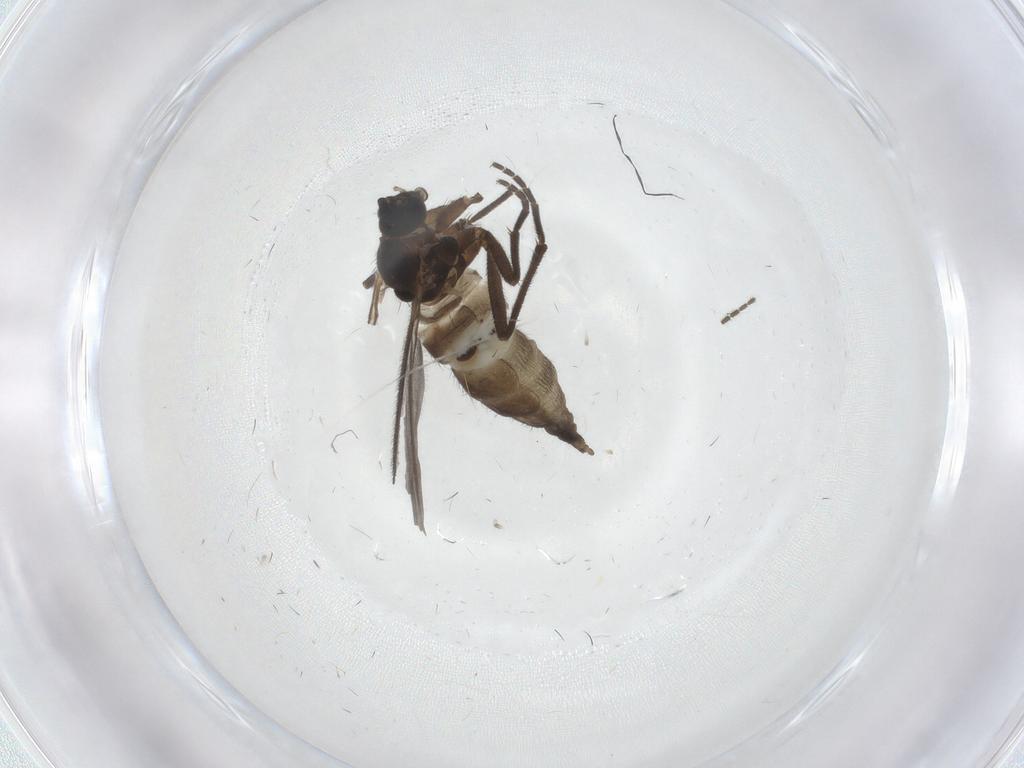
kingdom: Animalia
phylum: Arthropoda
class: Insecta
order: Diptera
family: Sciaridae
